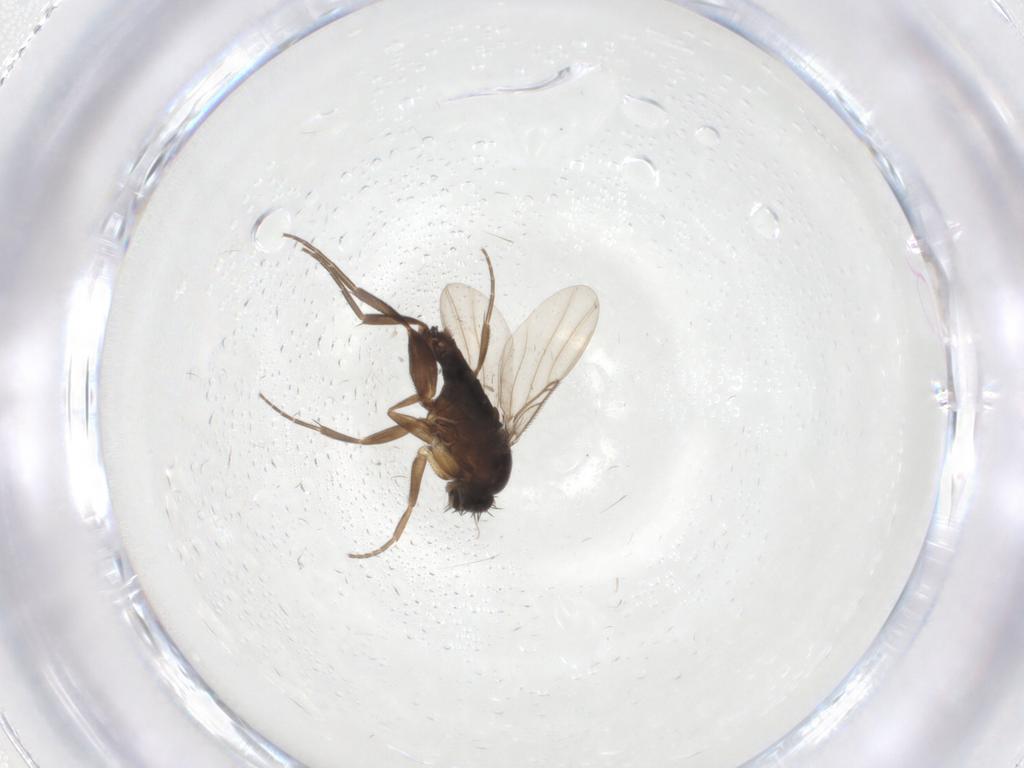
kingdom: Animalia
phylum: Arthropoda
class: Insecta
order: Diptera
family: Phoridae
